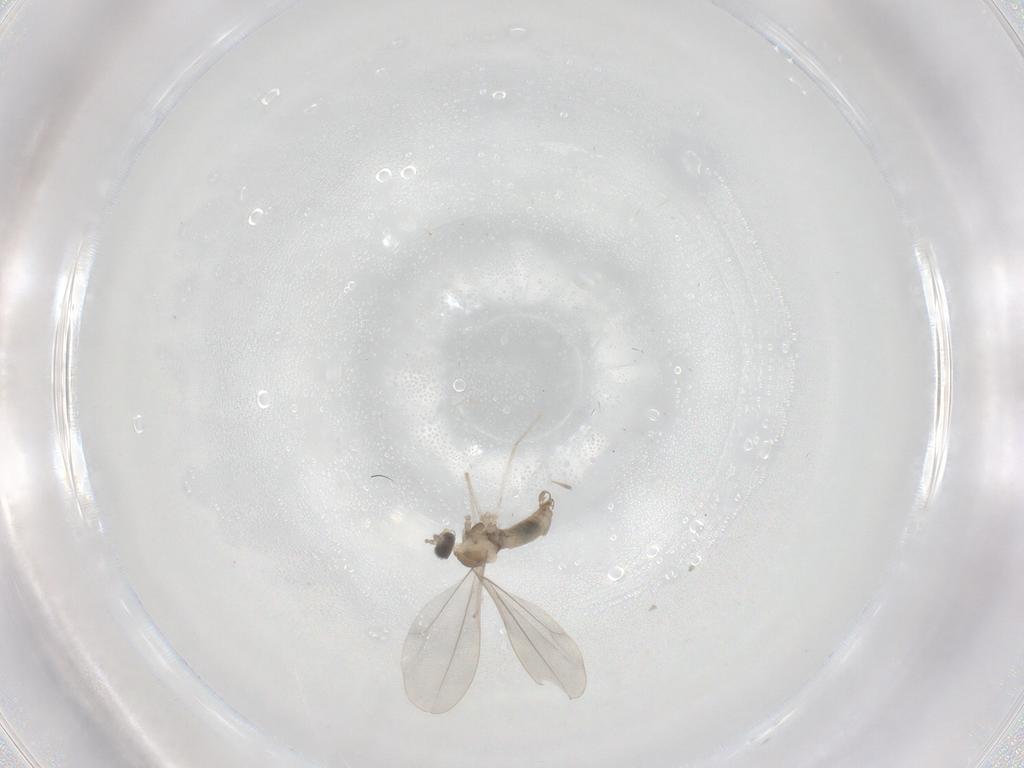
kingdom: Animalia
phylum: Arthropoda
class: Insecta
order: Diptera
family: Cecidomyiidae
